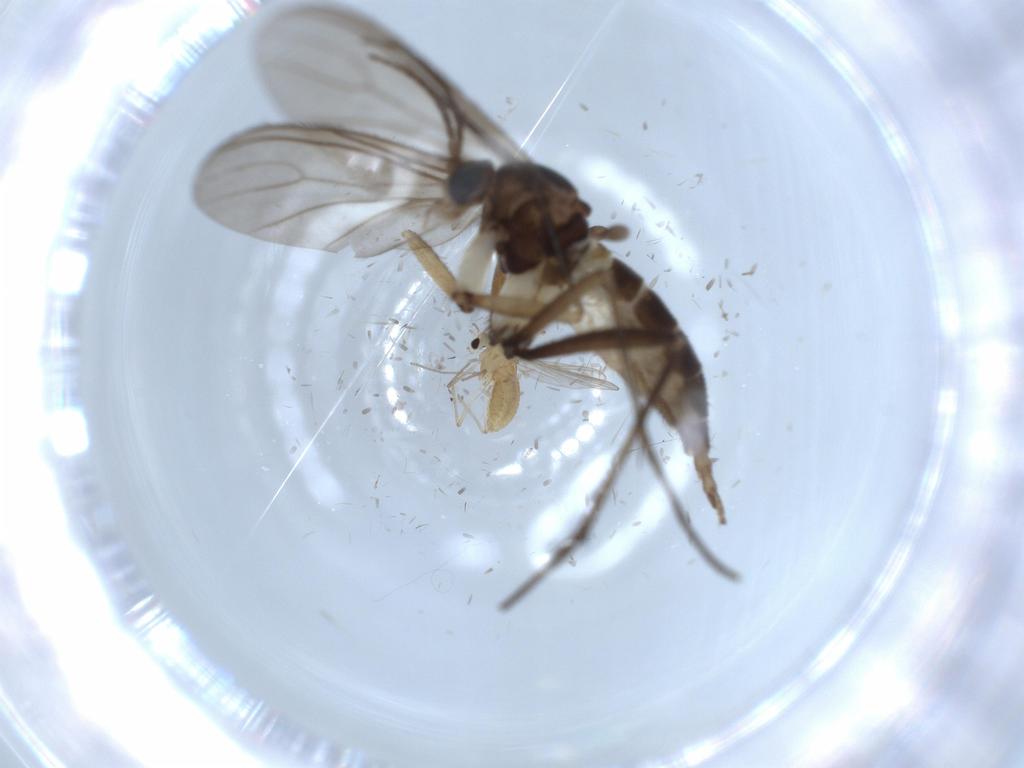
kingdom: Animalia
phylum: Arthropoda
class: Insecta
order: Diptera
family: Sciaridae
